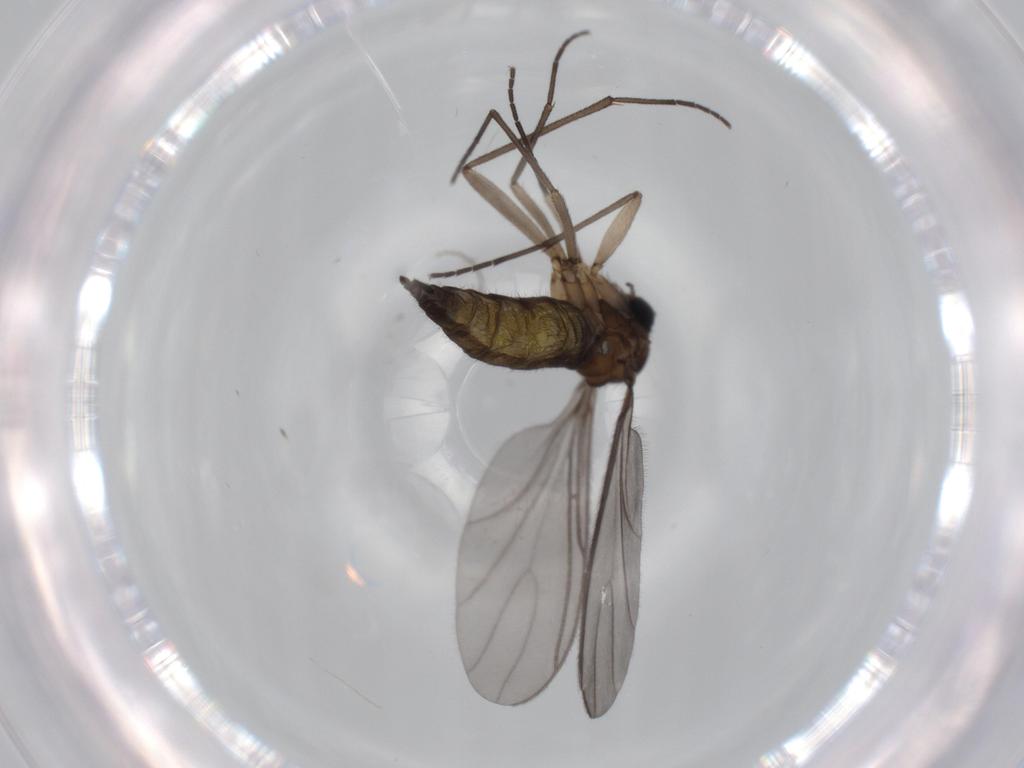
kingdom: Animalia
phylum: Arthropoda
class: Insecta
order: Diptera
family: Sciaridae
